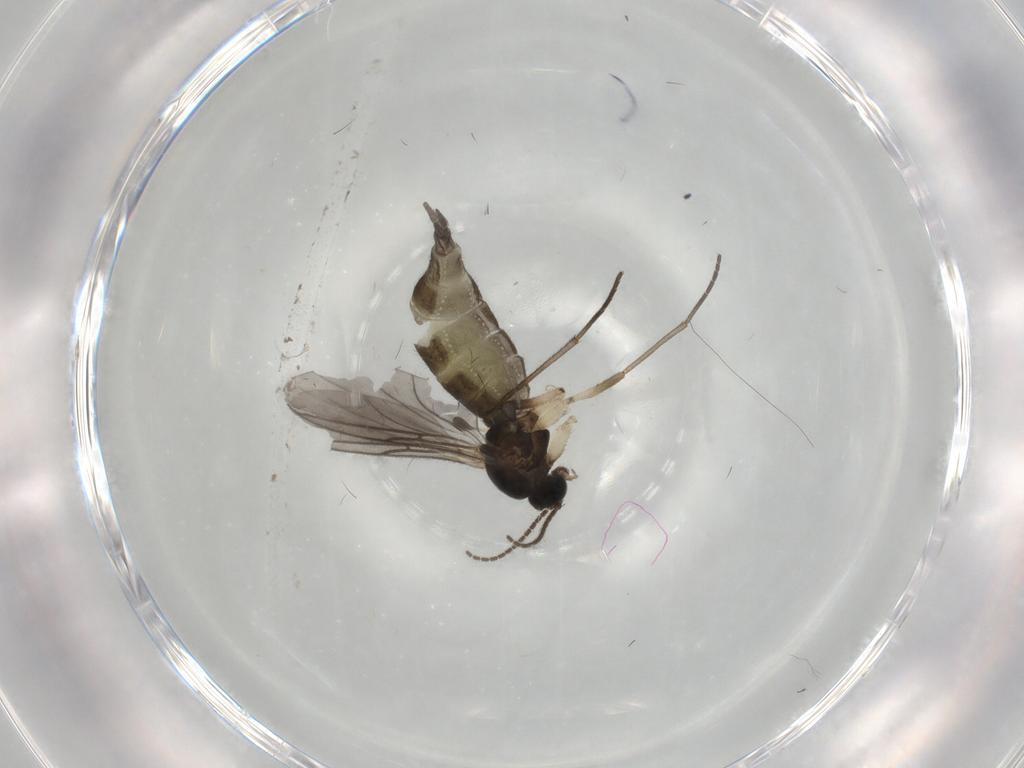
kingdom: Animalia
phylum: Arthropoda
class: Insecta
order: Diptera
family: Sciaridae
